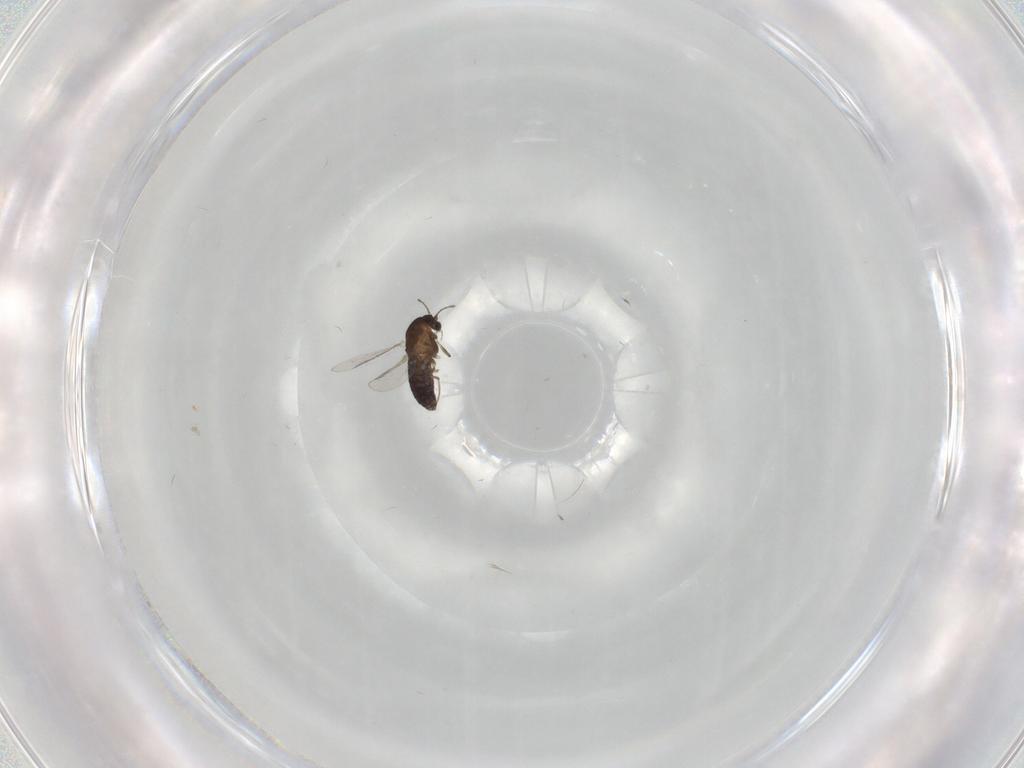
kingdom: Animalia
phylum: Arthropoda
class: Insecta
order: Diptera
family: Chironomidae
